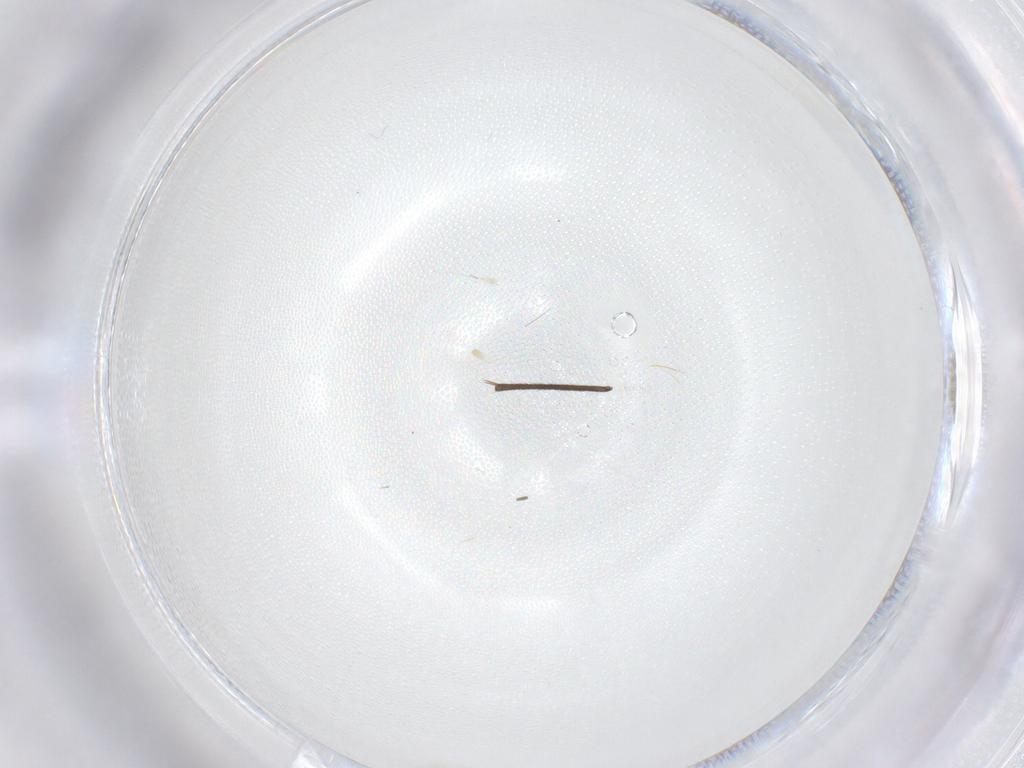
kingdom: Animalia
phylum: Arthropoda
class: Insecta
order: Diptera
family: Cecidomyiidae
